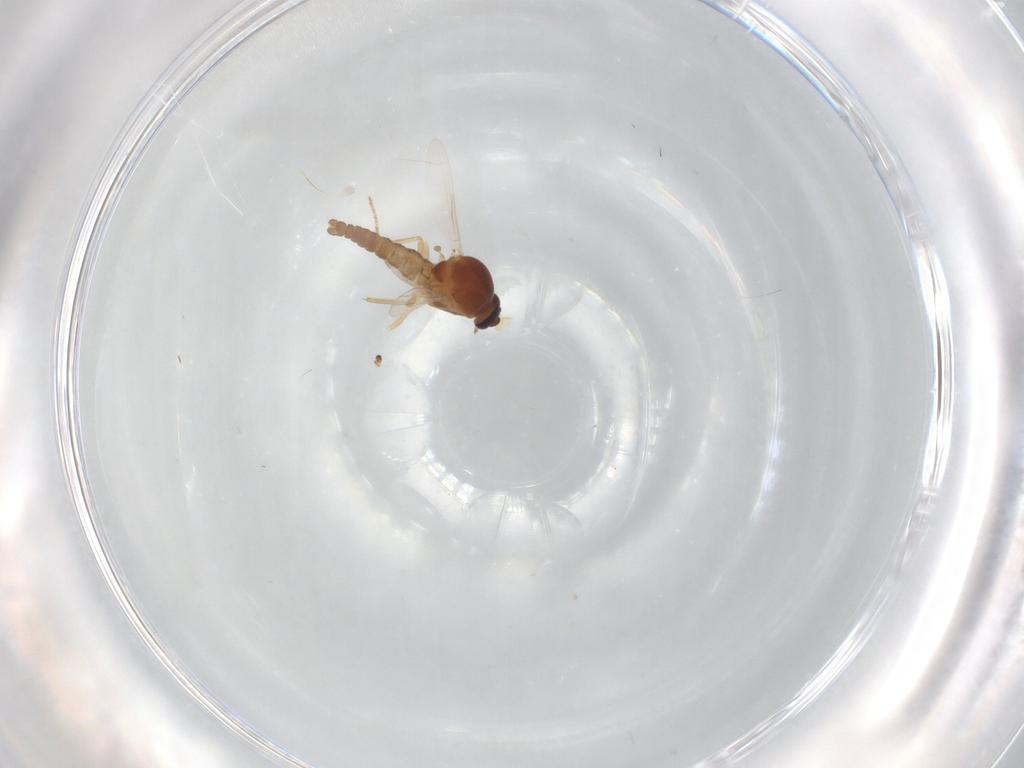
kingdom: Animalia
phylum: Arthropoda
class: Insecta
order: Diptera
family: Ceratopogonidae
